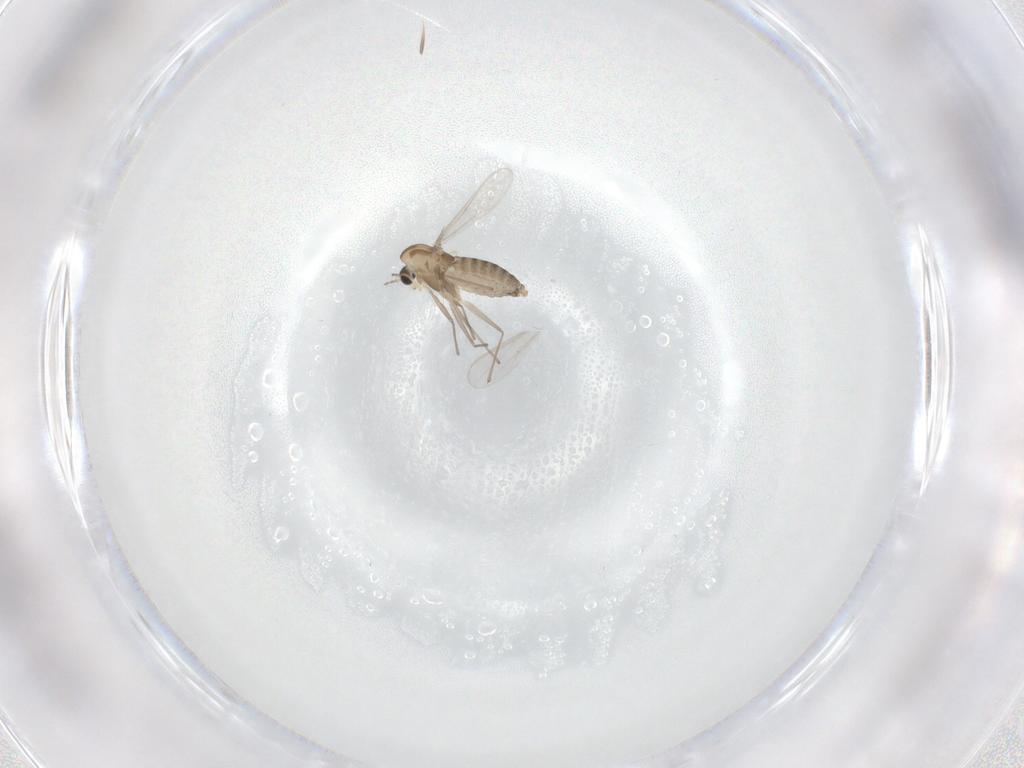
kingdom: Animalia
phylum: Arthropoda
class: Insecta
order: Diptera
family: Chironomidae
